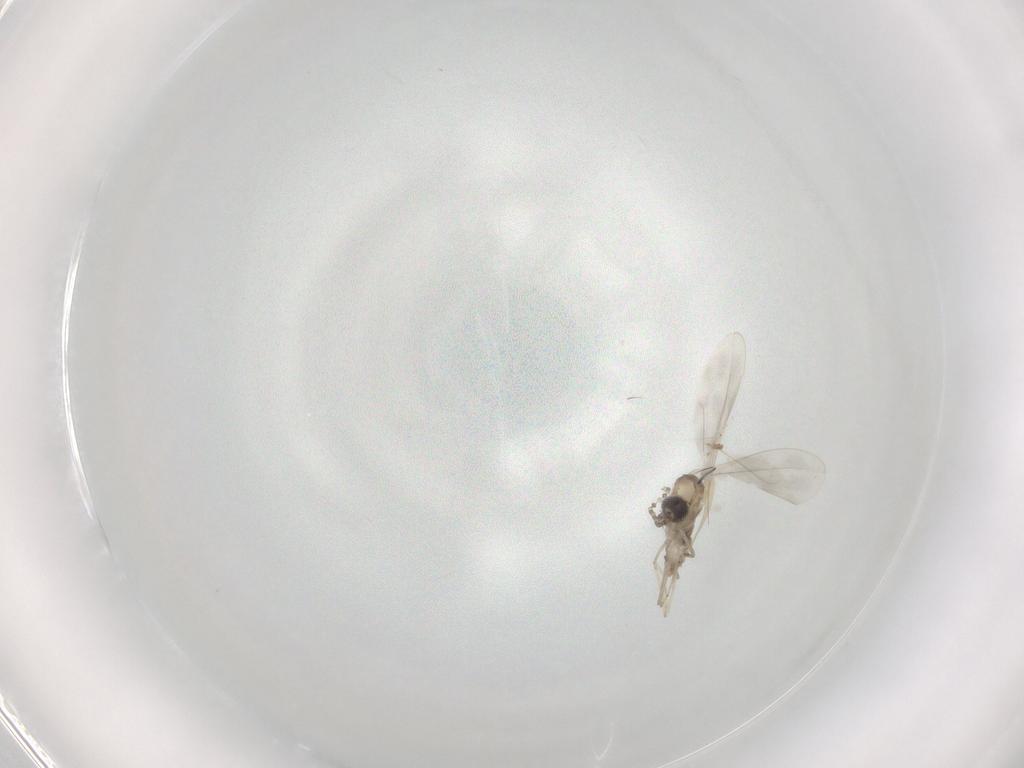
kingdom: Animalia
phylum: Arthropoda
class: Insecta
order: Diptera
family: Cecidomyiidae
